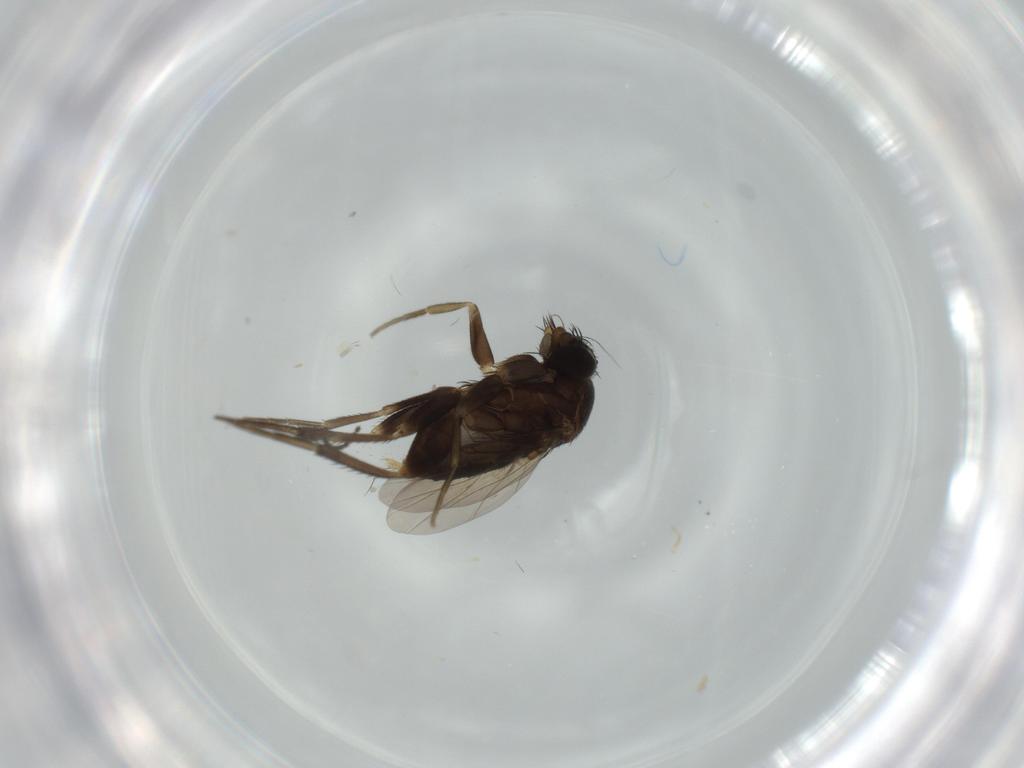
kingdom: Animalia
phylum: Arthropoda
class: Insecta
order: Diptera
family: Phoridae
